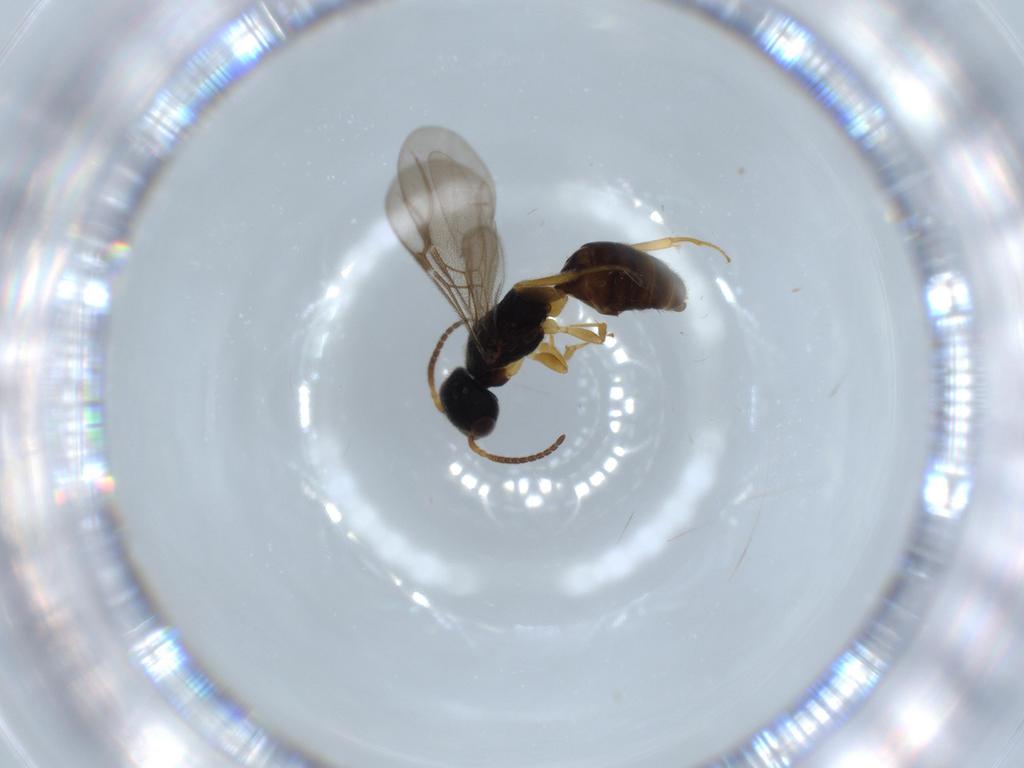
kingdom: Animalia
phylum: Arthropoda
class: Insecta
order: Hymenoptera
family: Bethylidae
